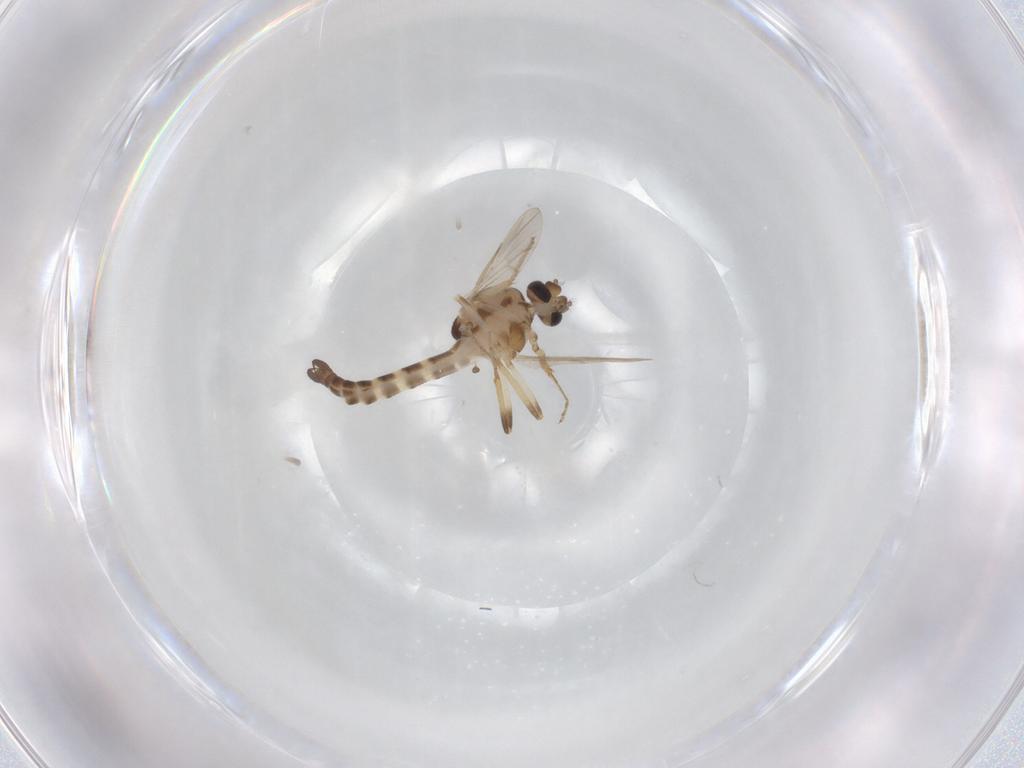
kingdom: Animalia
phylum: Arthropoda
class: Insecta
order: Diptera
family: Ceratopogonidae
